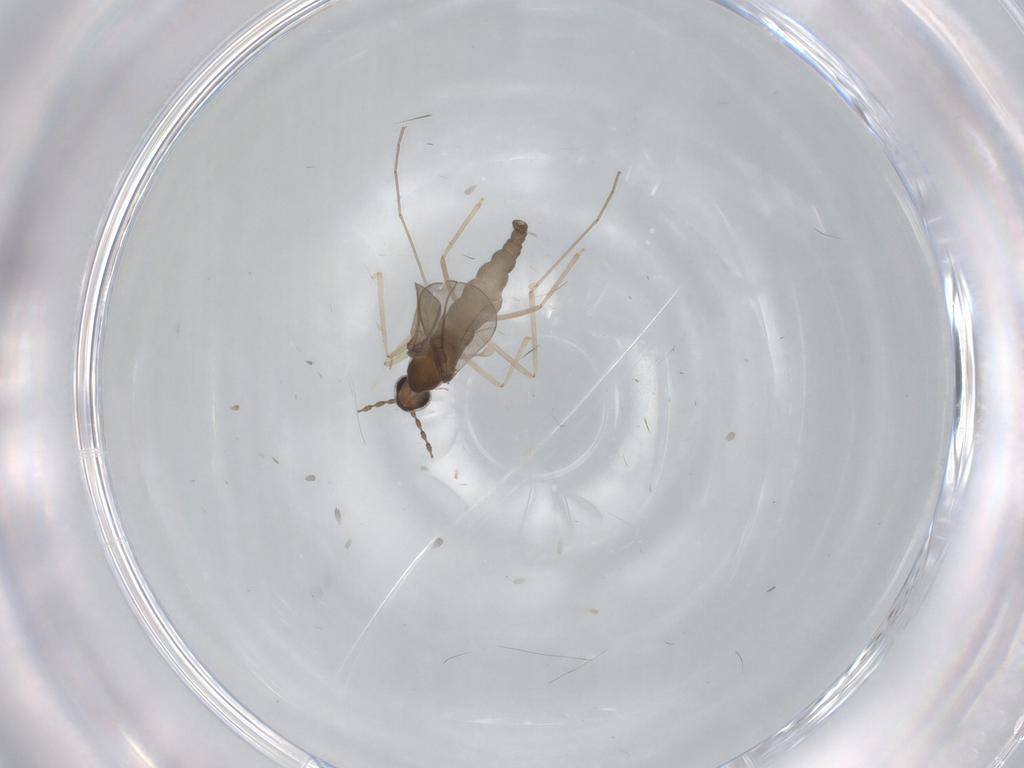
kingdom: Animalia
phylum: Arthropoda
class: Insecta
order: Diptera
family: Cecidomyiidae
